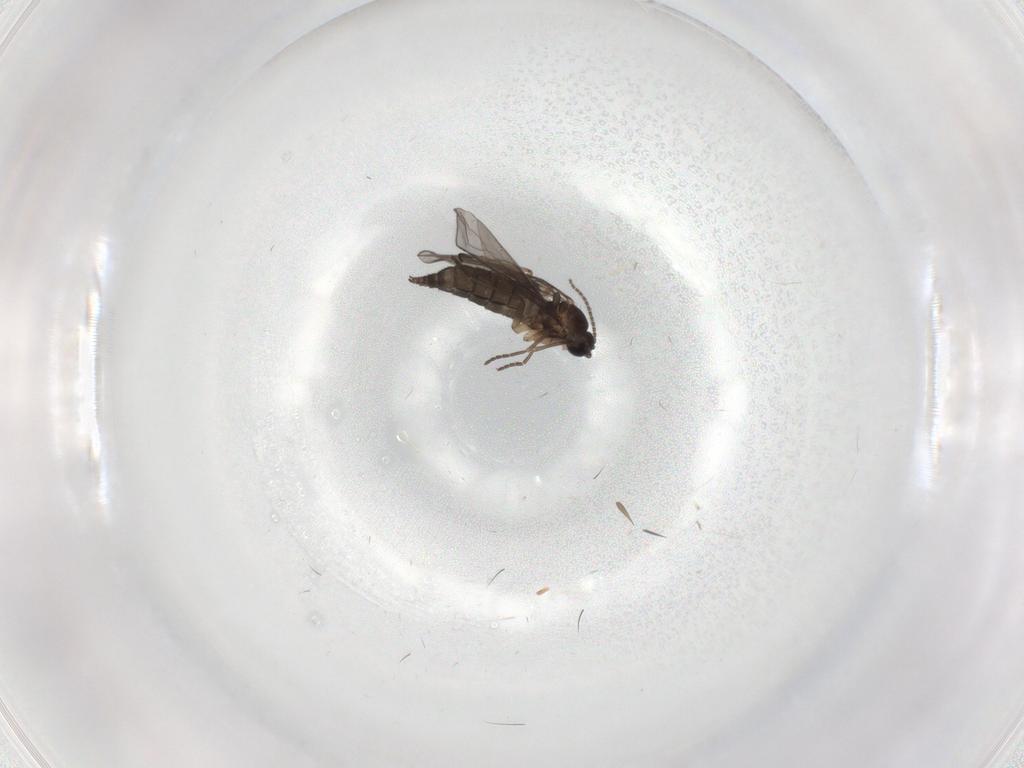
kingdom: Animalia
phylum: Arthropoda
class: Insecta
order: Diptera
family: Sciaridae
